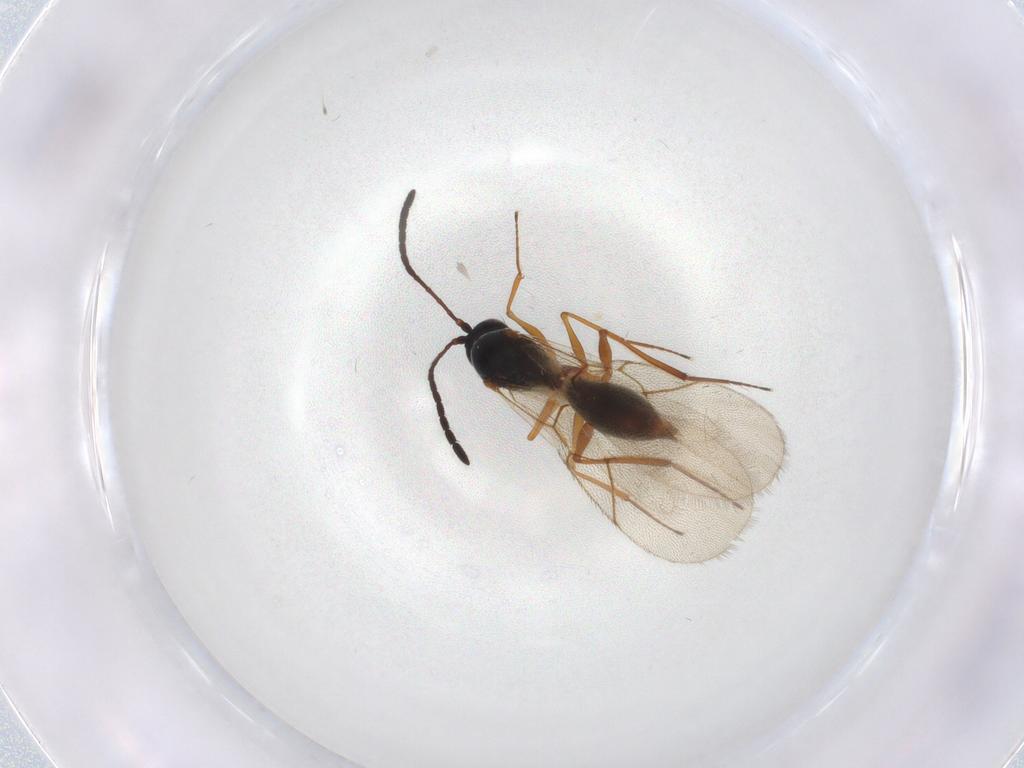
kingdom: Animalia
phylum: Arthropoda
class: Insecta
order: Hymenoptera
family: Figitidae
